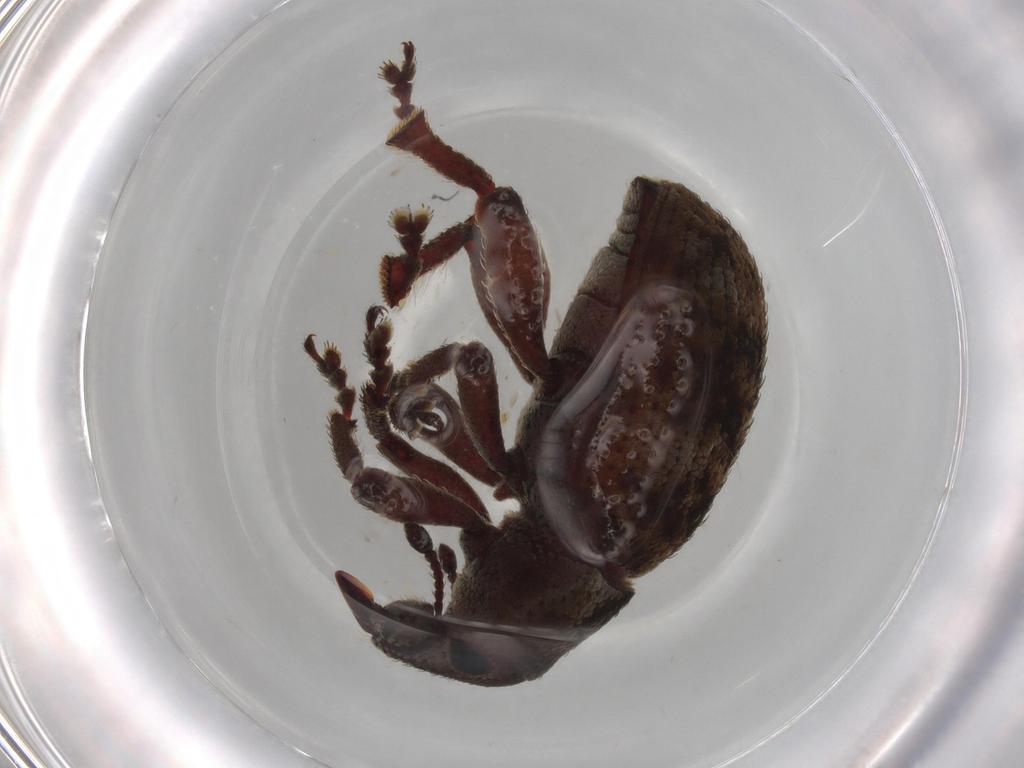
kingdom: Animalia
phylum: Arthropoda
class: Insecta
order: Coleoptera
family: Curculionidae
